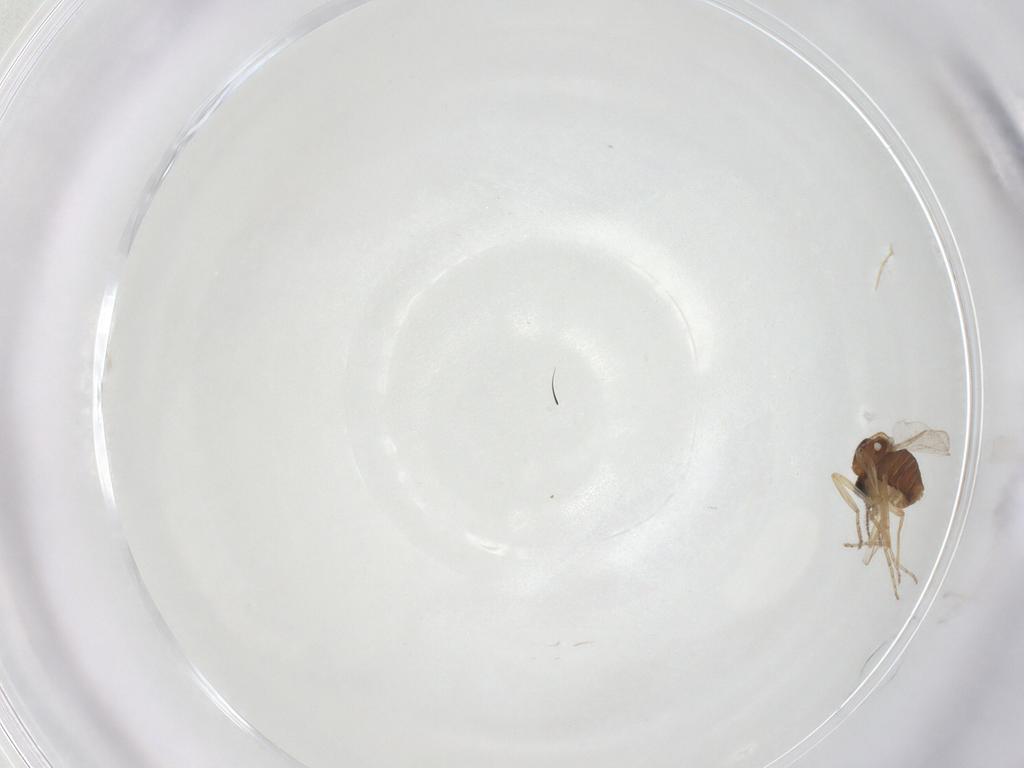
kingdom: Animalia
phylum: Arthropoda
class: Insecta
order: Diptera
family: Ceratopogonidae
